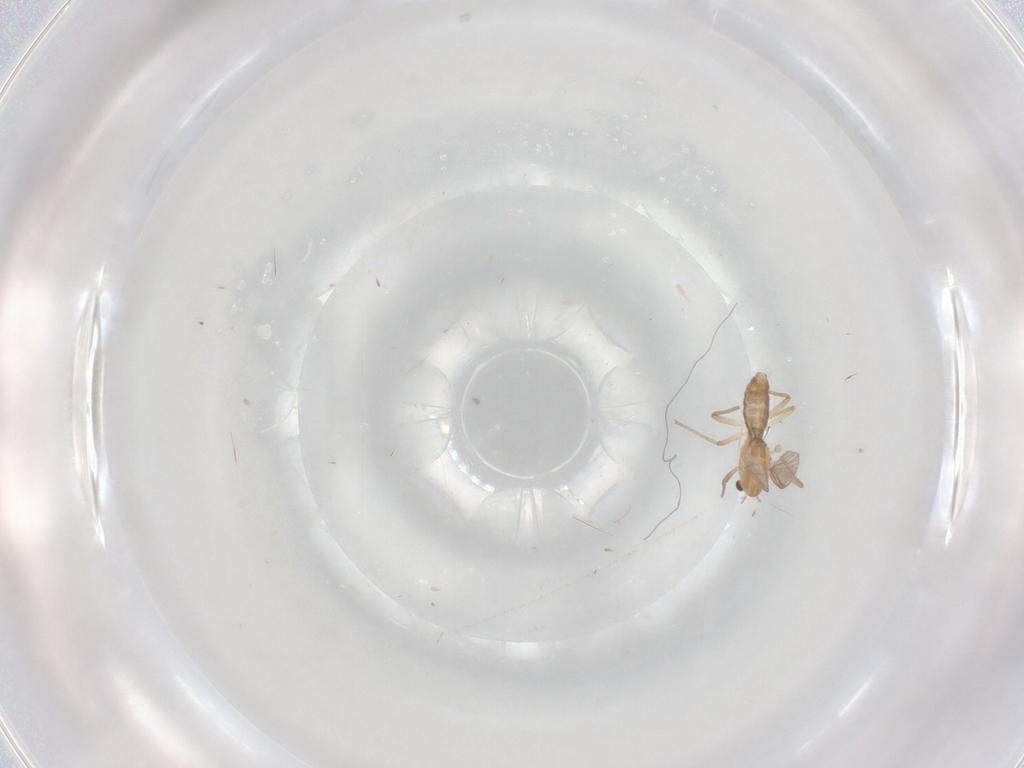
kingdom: Animalia
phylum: Arthropoda
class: Insecta
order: Diptera
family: Chironomidae
